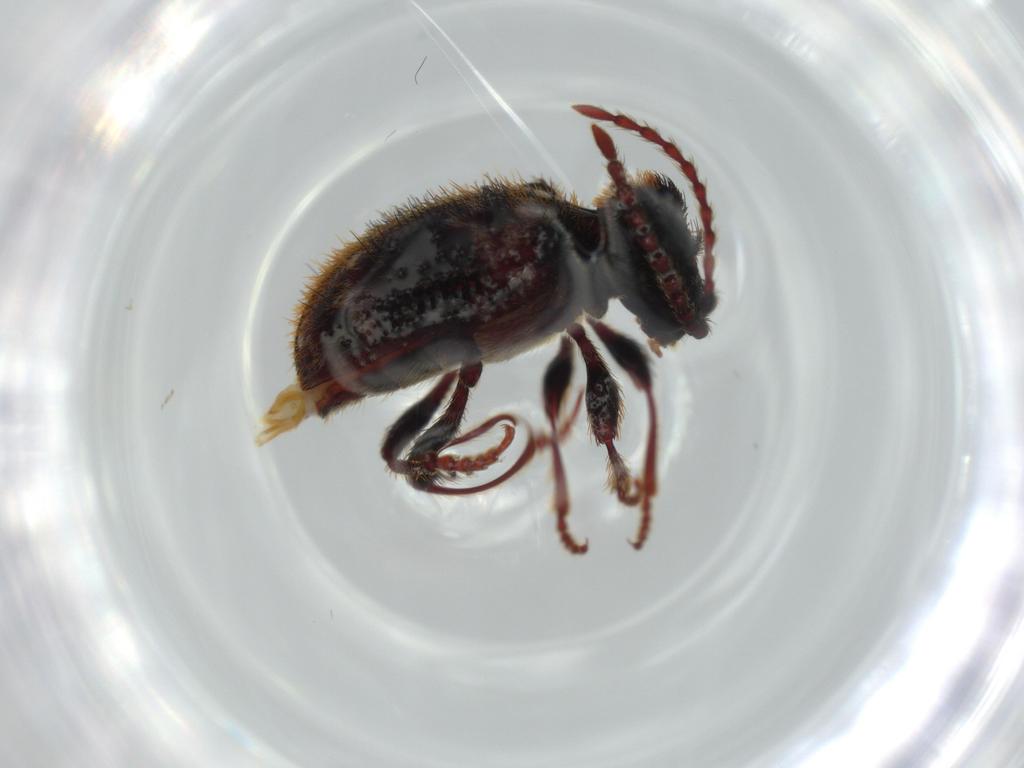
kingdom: Animalia
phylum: Arthropoda
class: Insecta
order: Coleoptera
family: Ptinidae
